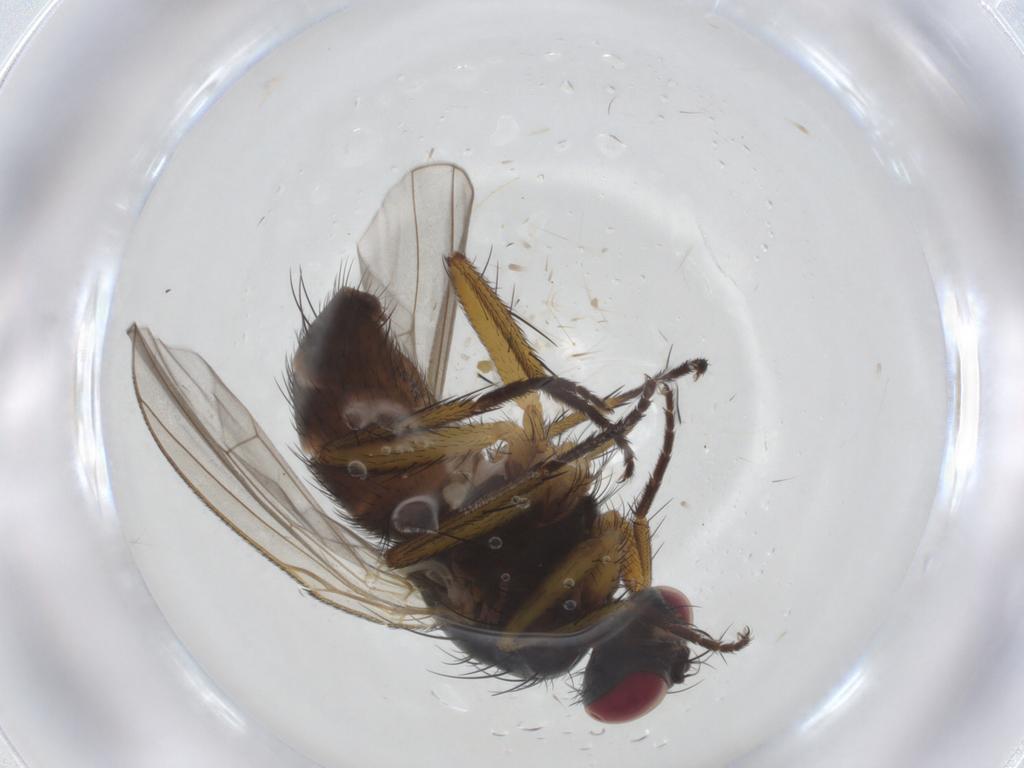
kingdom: Animalia
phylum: Arthropoda
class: Insecta
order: Diptera
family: Muscidae
